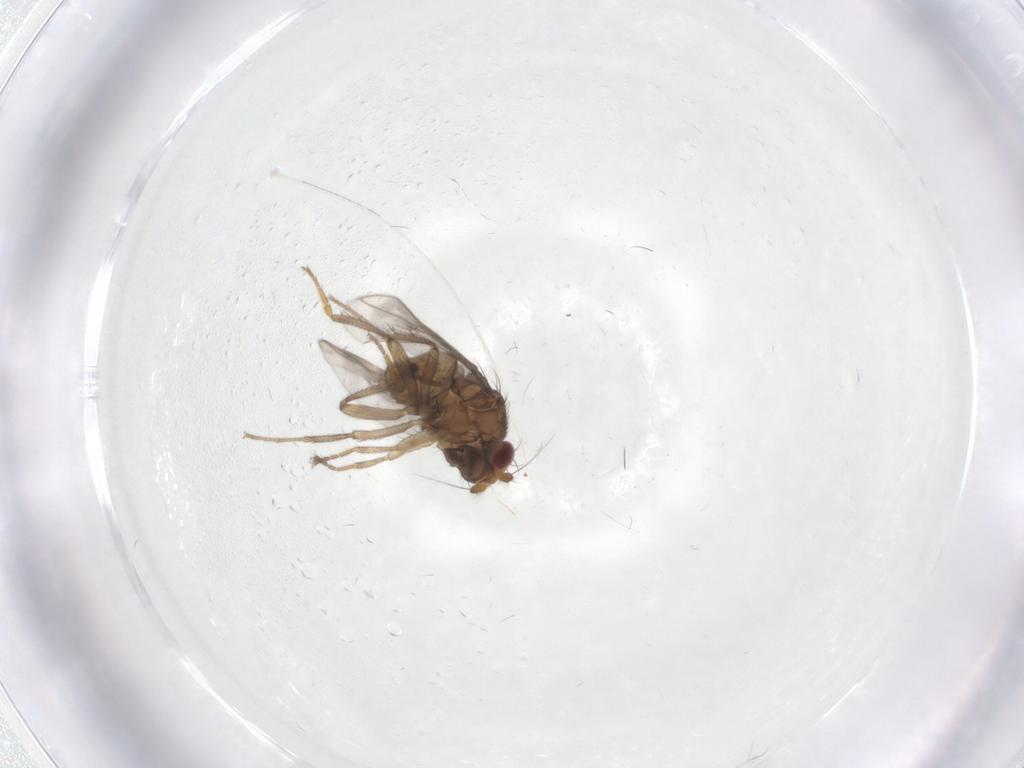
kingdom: Animalia
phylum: Arthropoda
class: Insecta
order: Diptera
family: Sphaeroceridae
